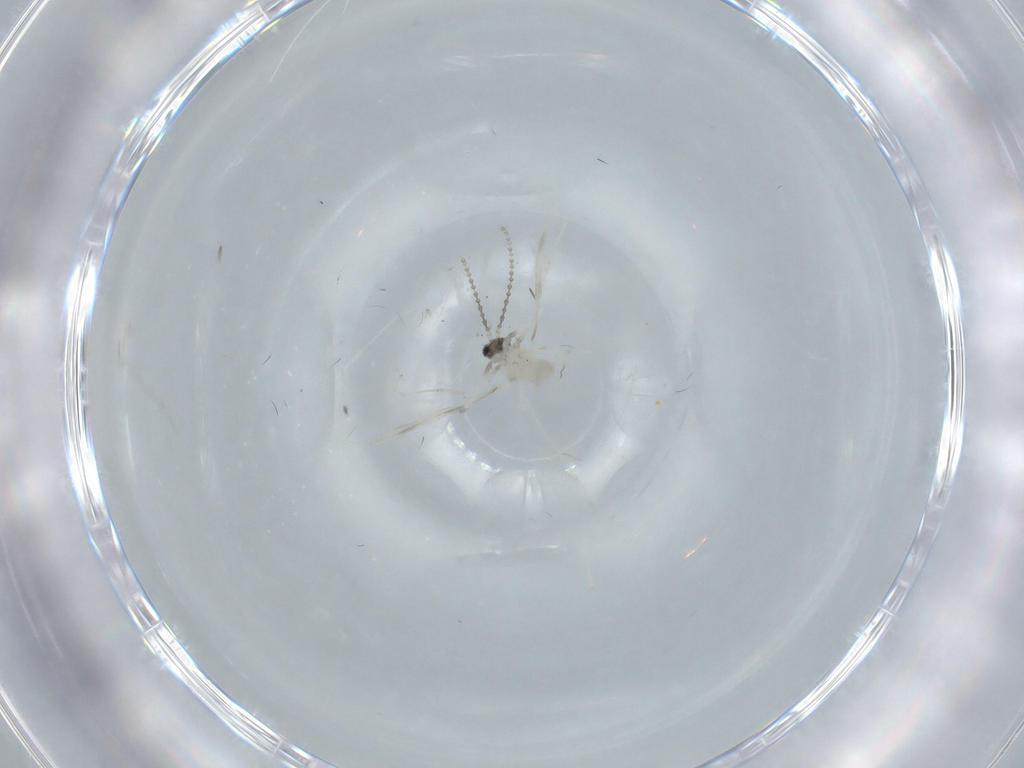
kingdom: Animalia
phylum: Arthropoda
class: Insecta
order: Diptera
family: Cecidomyiidae
